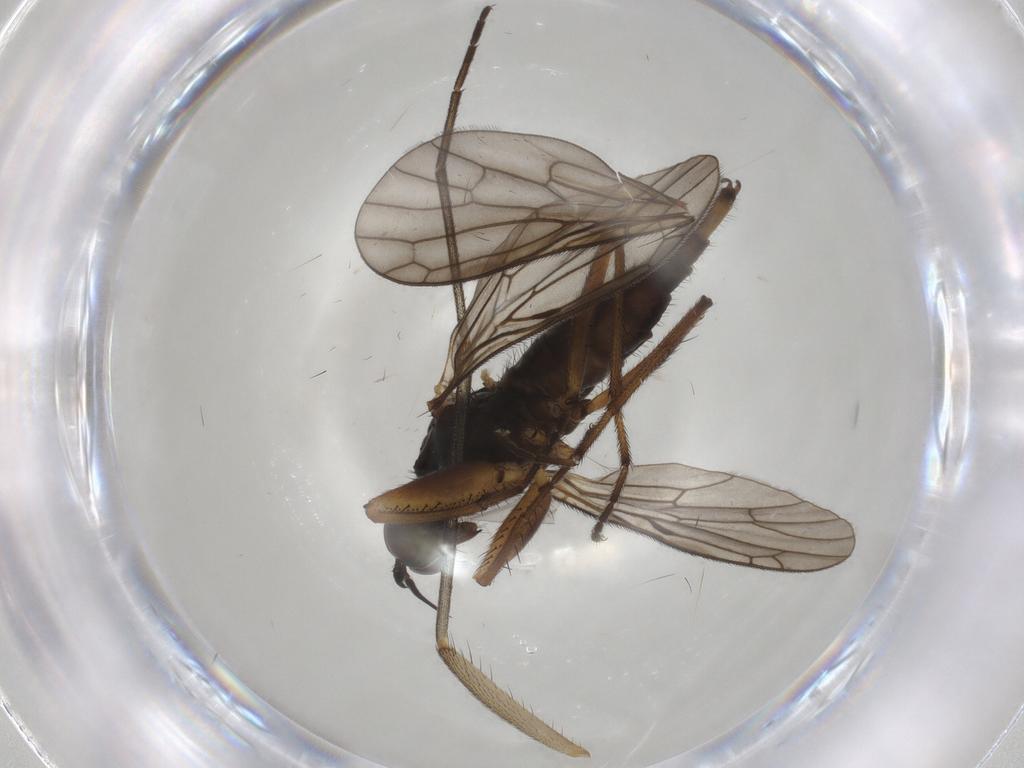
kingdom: Animalia
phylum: Arthropoda
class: Insecta
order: Diptera
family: Empididae
